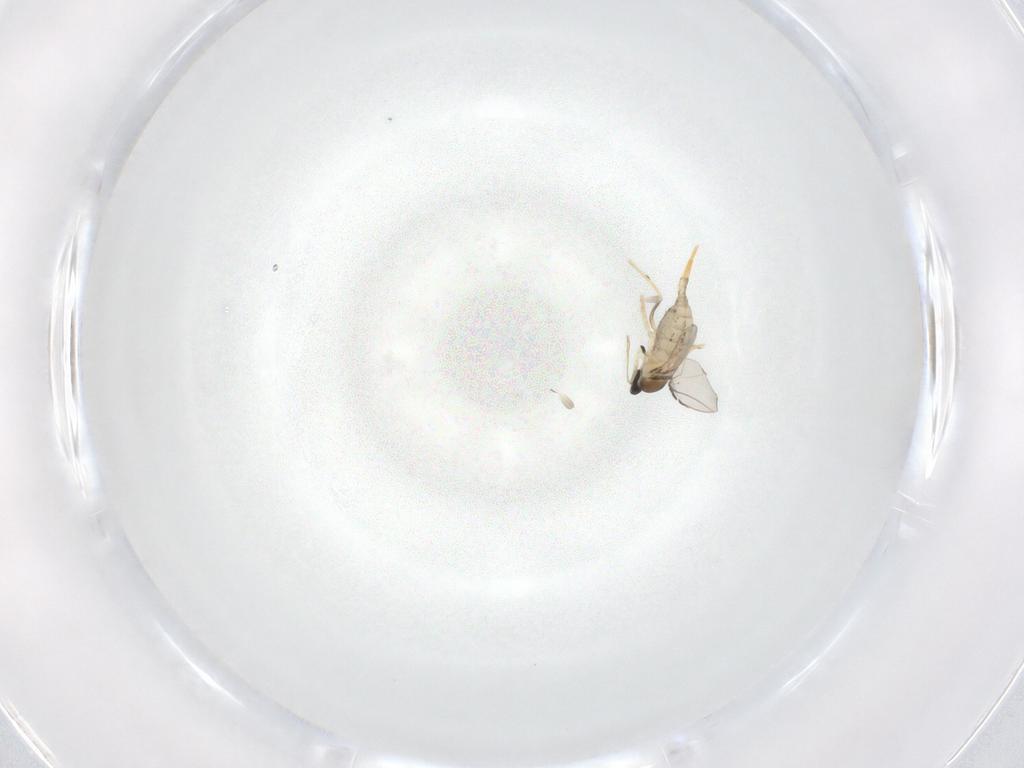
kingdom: Animalia
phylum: Arthropoda
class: Insecta
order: Diptera
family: Cecidomyiidae
